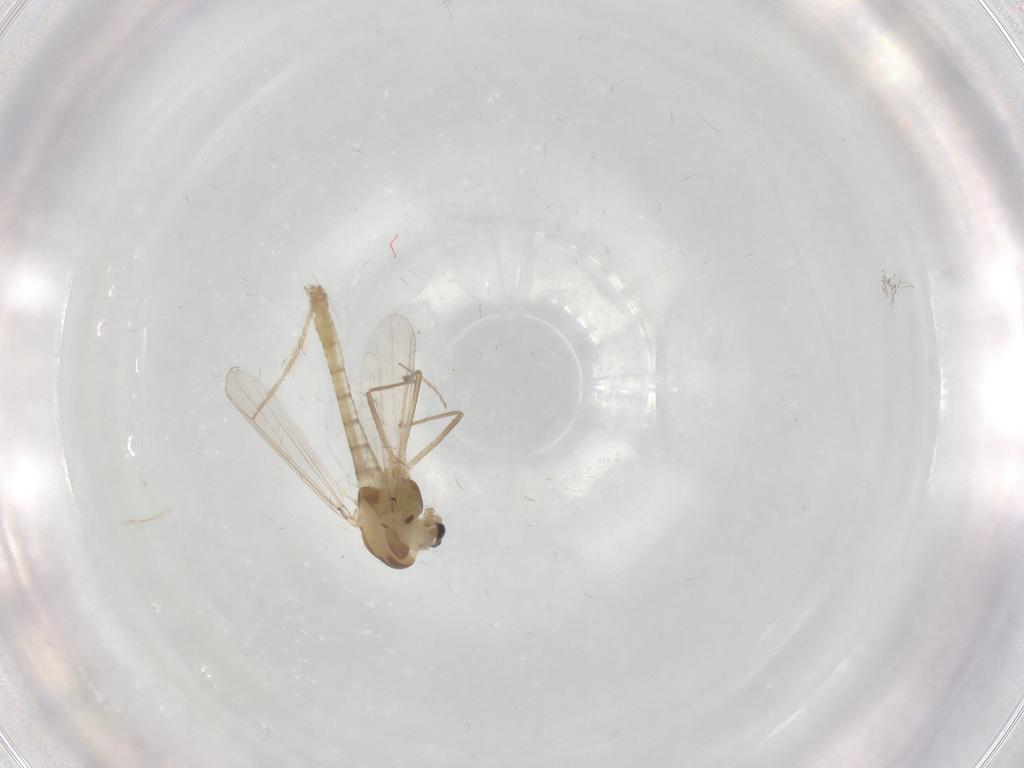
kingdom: Animalia
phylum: Arthropoda
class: Insecta
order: Diptera
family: Chironomidae
